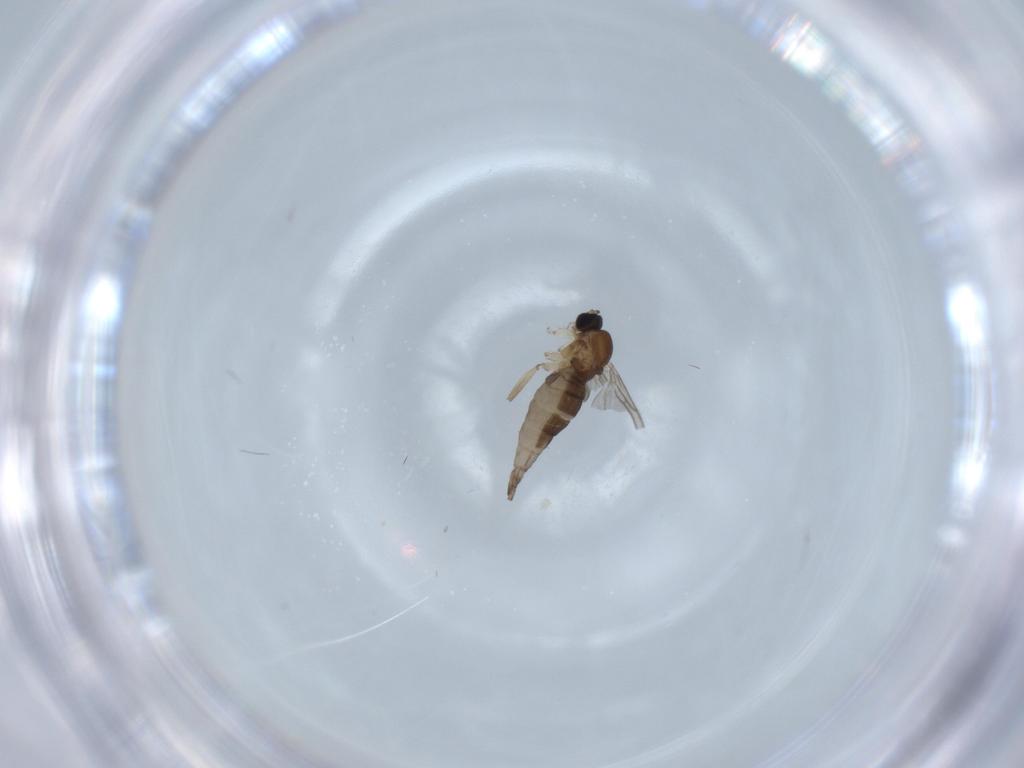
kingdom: Animalia
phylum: Arthropoda
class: Insecta
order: Diptera
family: Sciaridae
